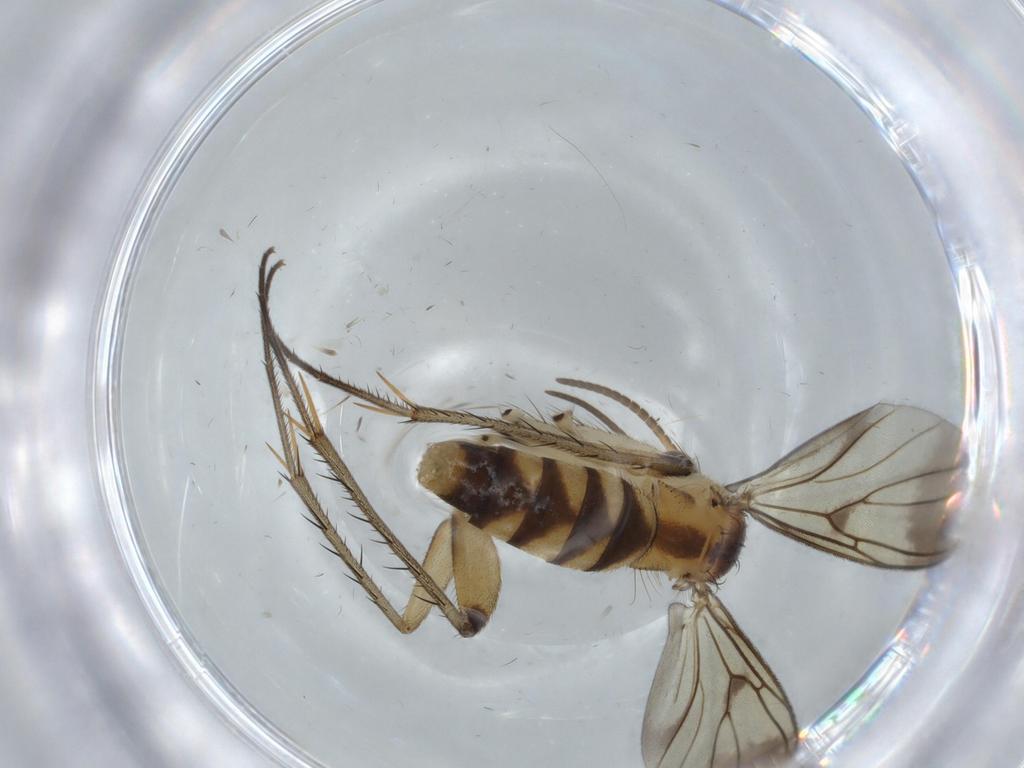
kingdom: Animalia
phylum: Arthropoda
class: Insecta
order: Diptera
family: Mycetophilidae
